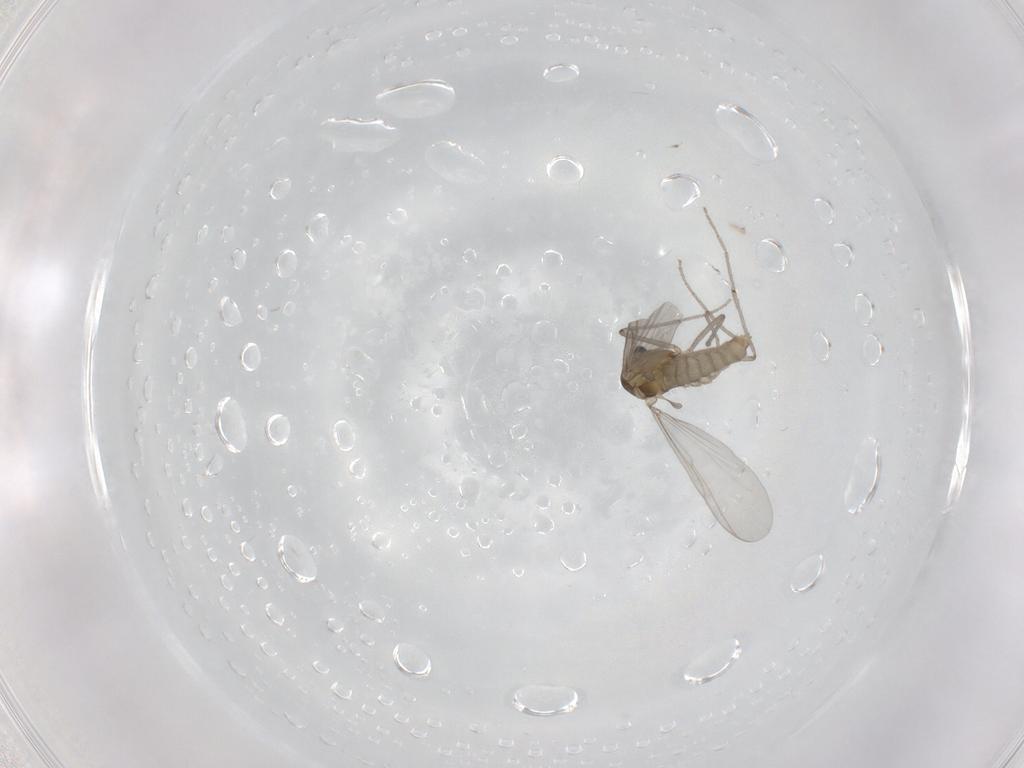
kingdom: Animalia
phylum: Arthropoda
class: Insecta
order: Diptera
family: Chironomidae
